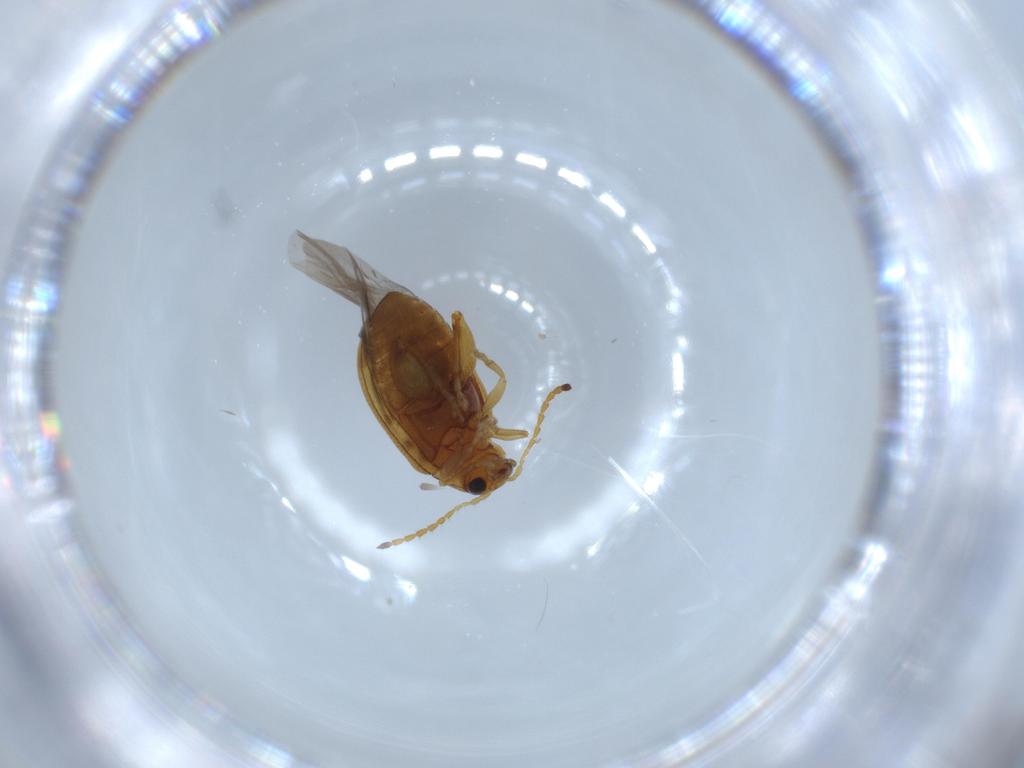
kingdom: Animalia
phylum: Arthropoda
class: Insecta
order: Coleoptera
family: Chrysomelidae
